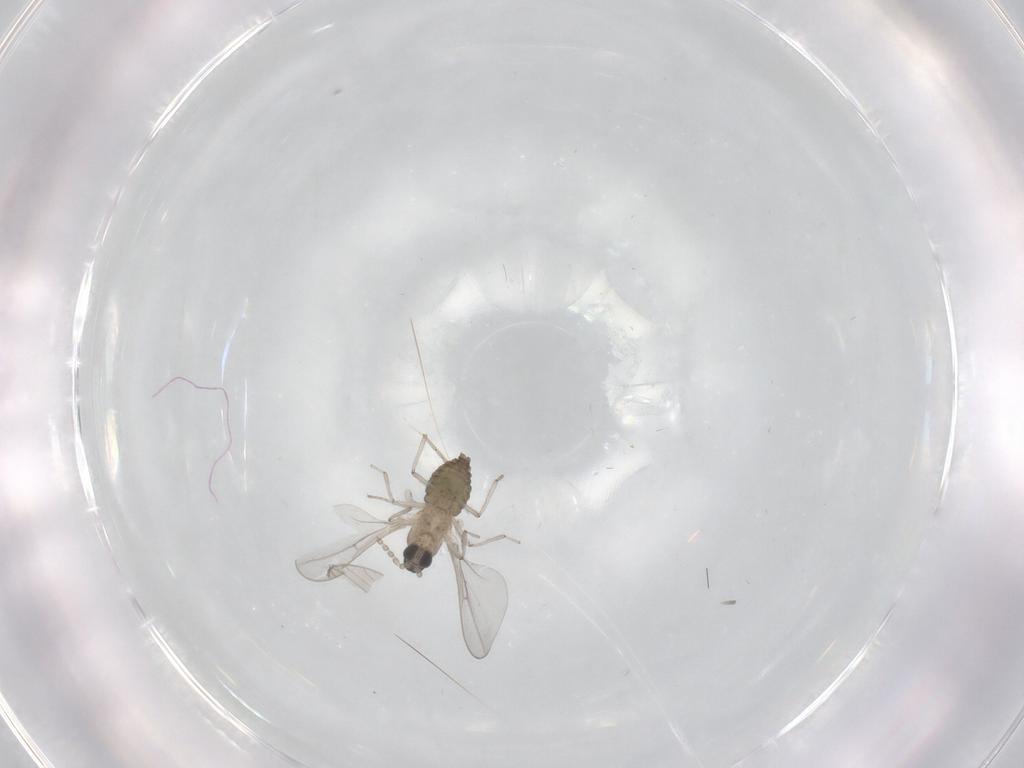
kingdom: Animalia
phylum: Arthropoda
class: Insecta
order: Diptera
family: Cecidomyiidae
